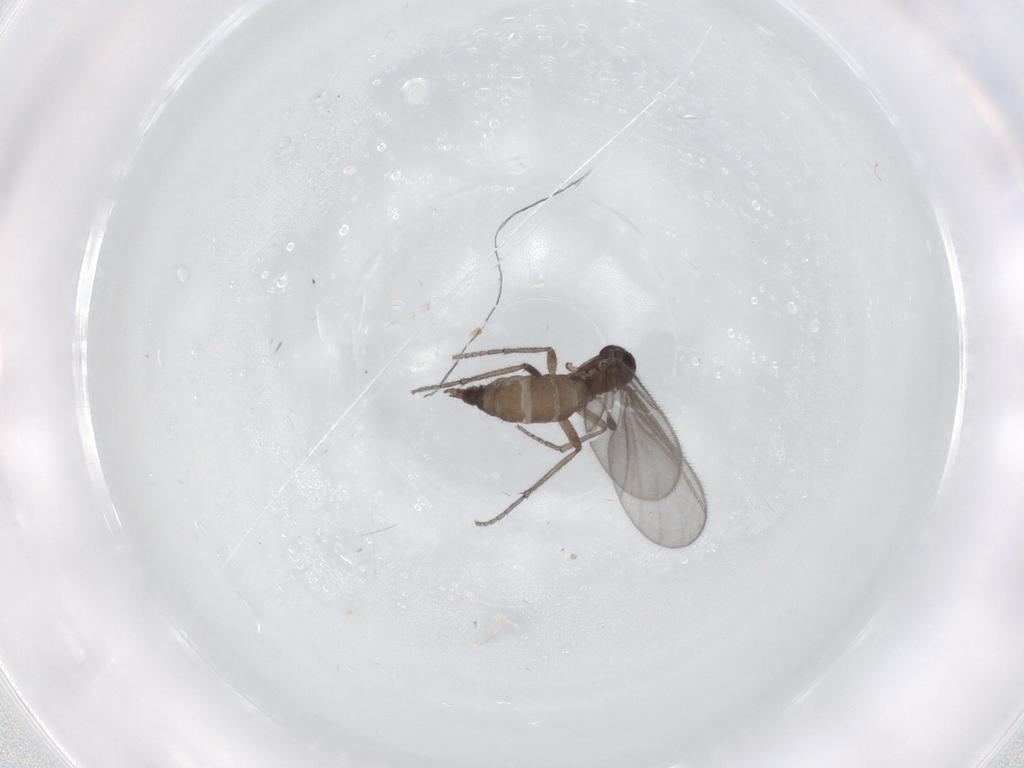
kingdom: Animalia
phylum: Arthropoda
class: Insecta
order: Diptera
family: Sciaridae
